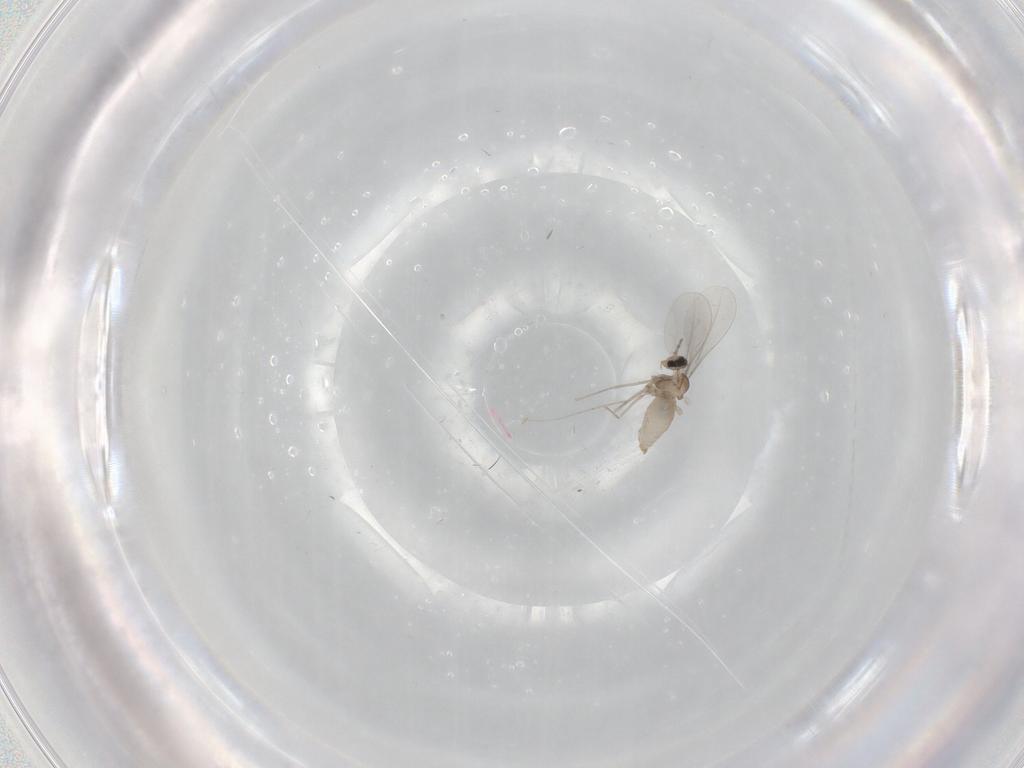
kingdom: Animalia
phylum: Arthropoda
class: Insecta
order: Diptera
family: Cecidomyiidae
